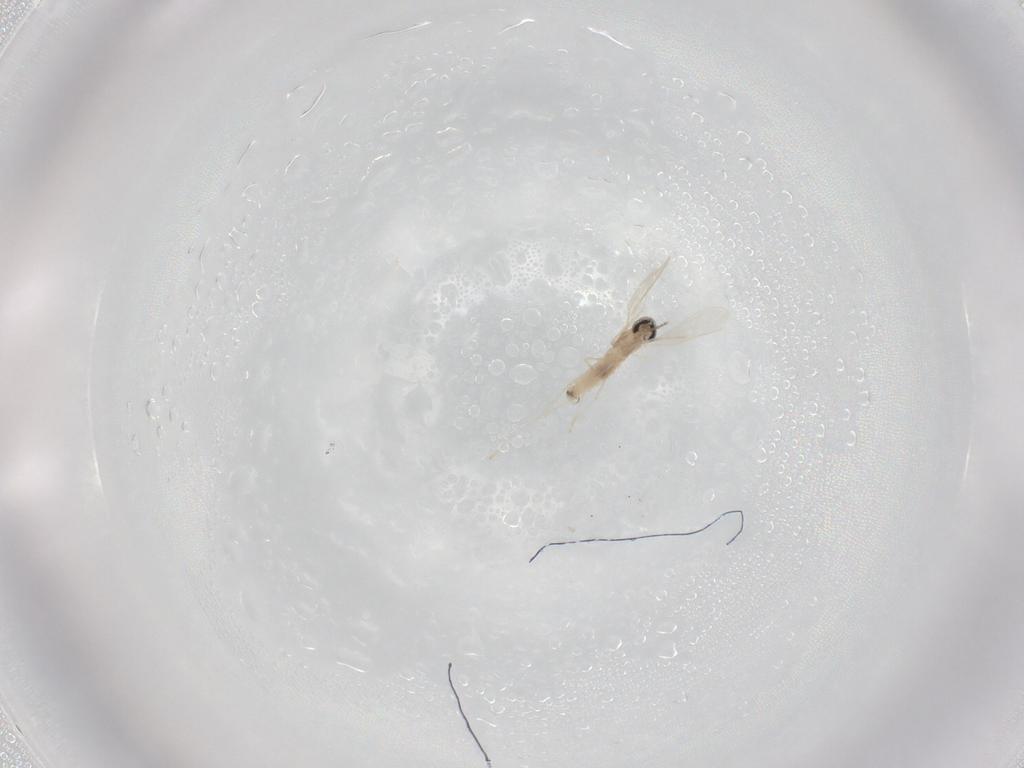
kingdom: Animalia
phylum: Arthropoda
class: Insecta
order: Diptera
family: Cecidomyiidae
